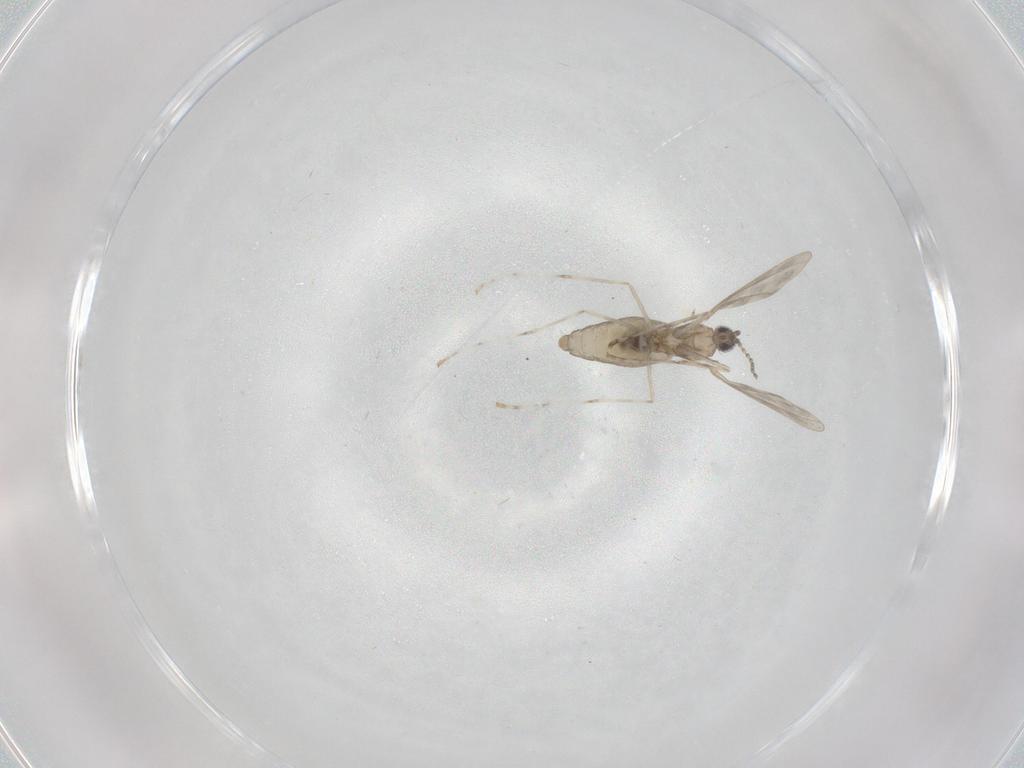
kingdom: Animalia
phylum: Arthropoda
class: Insecta
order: Diptera
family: Cecidomyiidae
